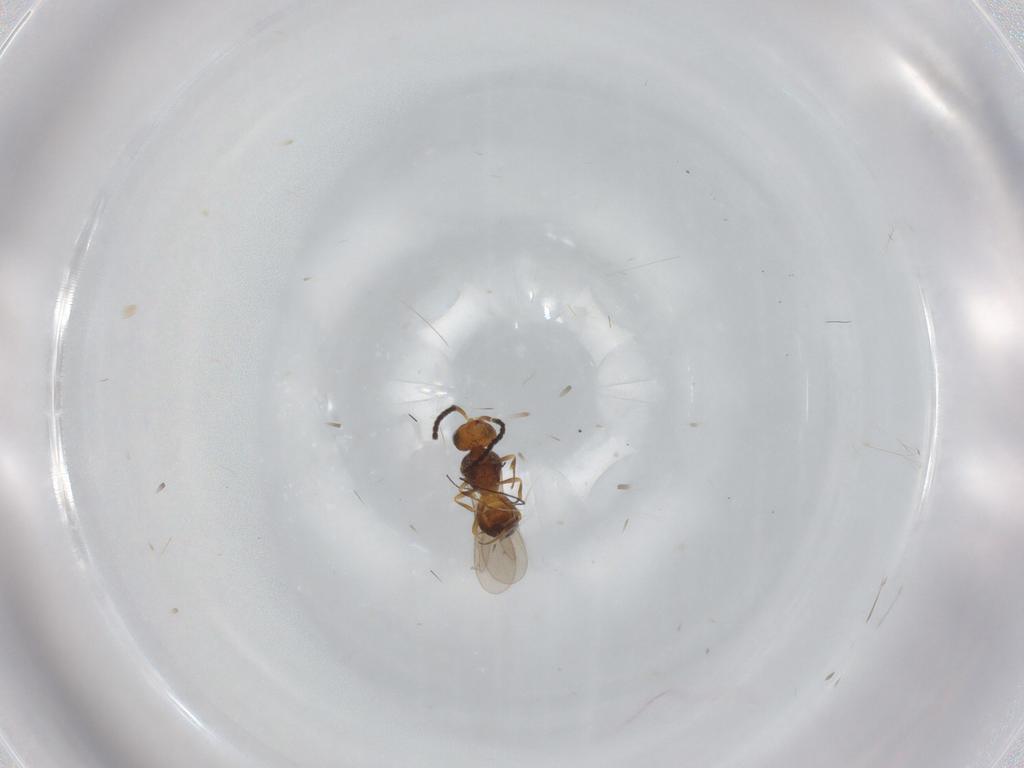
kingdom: Animalia
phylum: Arthropoda
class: Insecta
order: Hymenoptera
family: Scelionidae
